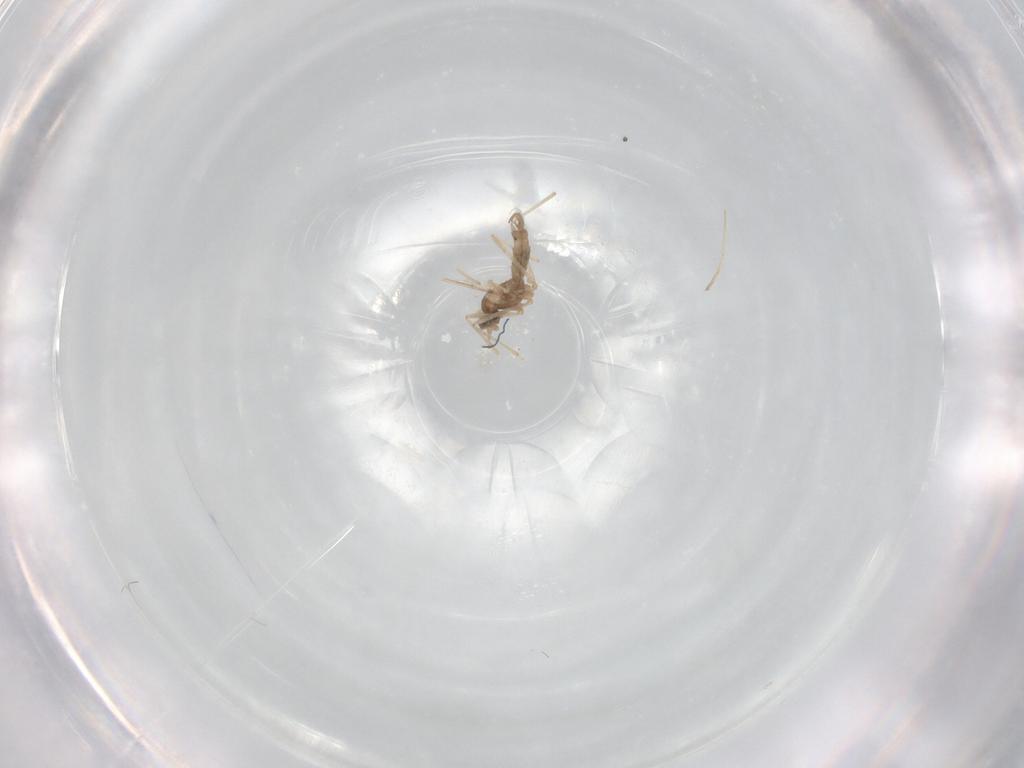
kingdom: Animalia
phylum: Arthropoda
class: Insecta
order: Diptera
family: Cecidomyiidae
